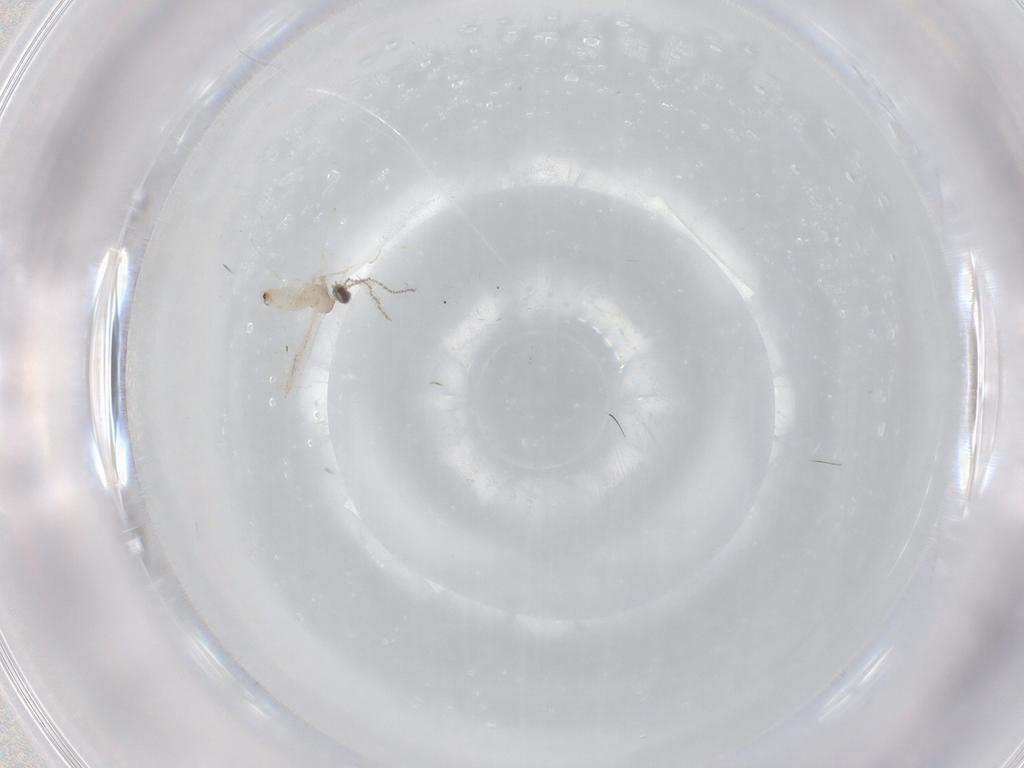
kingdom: Animalia
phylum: Arthropoda
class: Insecta
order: Diptera
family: Cecidomyiidae
